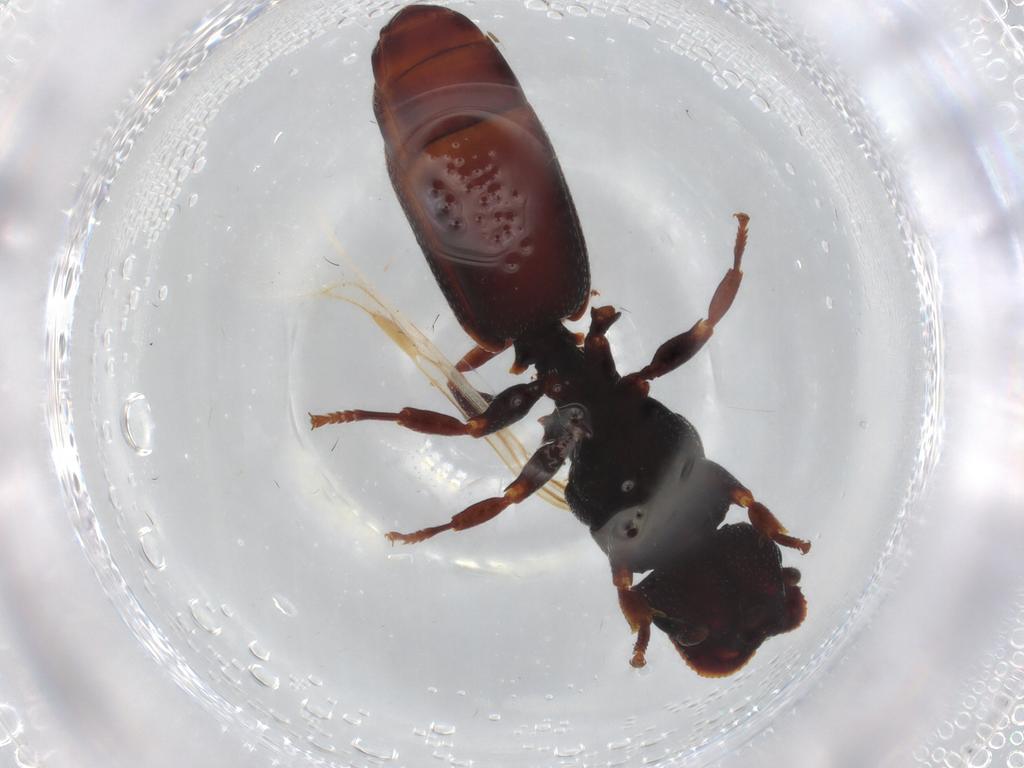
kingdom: Animalia
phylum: Arthropoda
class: Insecta
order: Hymenoptera
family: Formicidae
